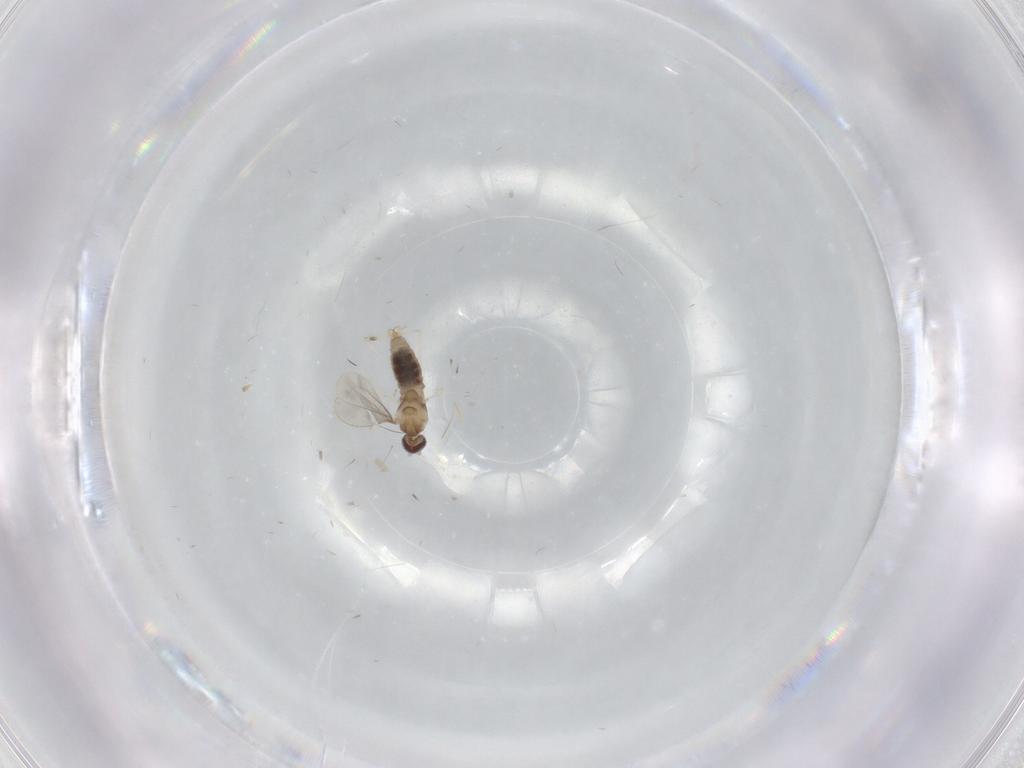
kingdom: Animalia
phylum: Arthropoda
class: Insecta
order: Diptera
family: Cecidomyiidae
